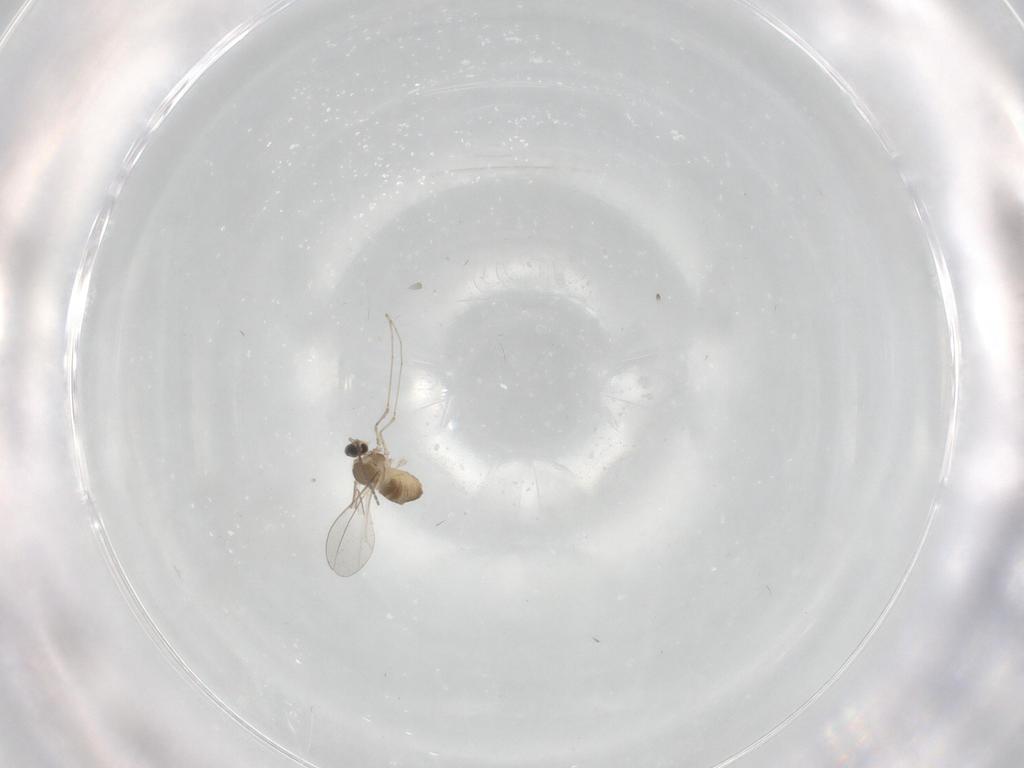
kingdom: Animalia
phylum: Arthropoda
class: Insecta
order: Diptera
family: Cecidomyiidae
